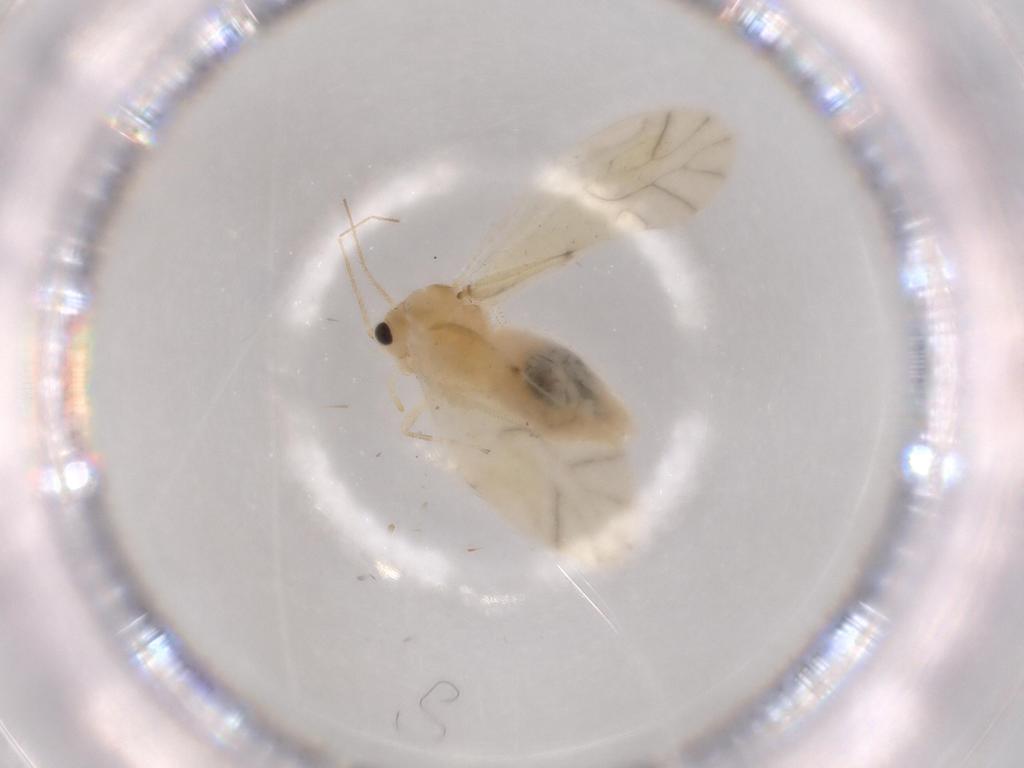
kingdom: Animalia
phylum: Arthropoda
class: Insecta
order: Psocodea
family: Caeciliusidae
